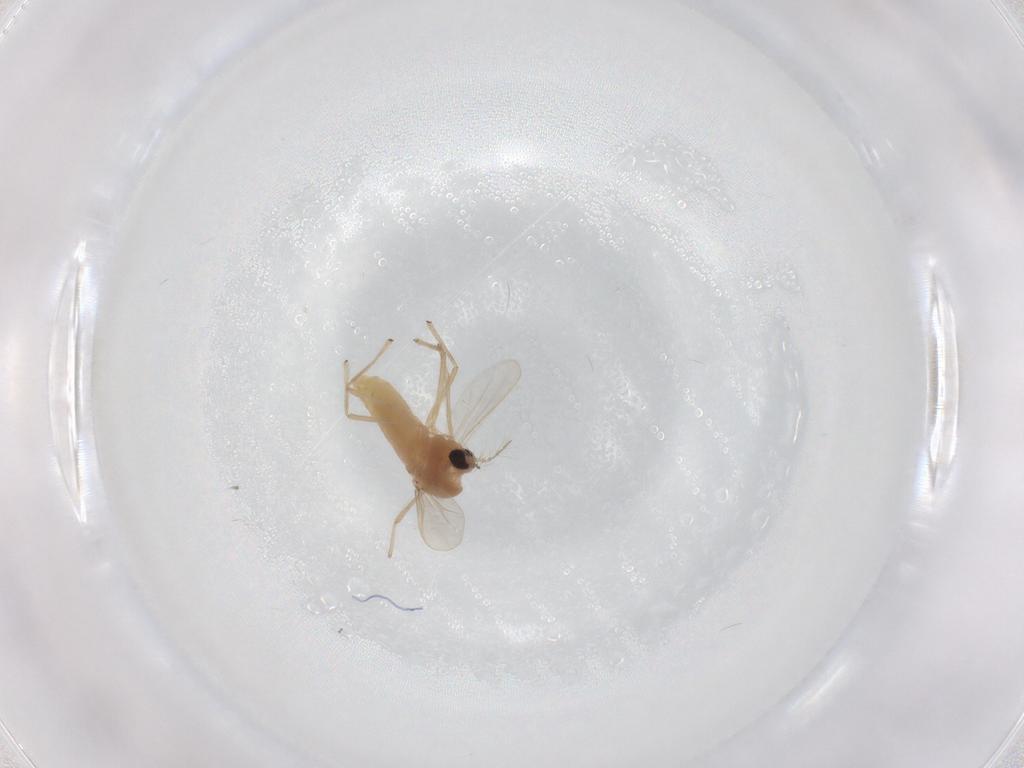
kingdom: Animalia
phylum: Arthropoda
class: Insecta
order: Diptera
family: Chironomidae
